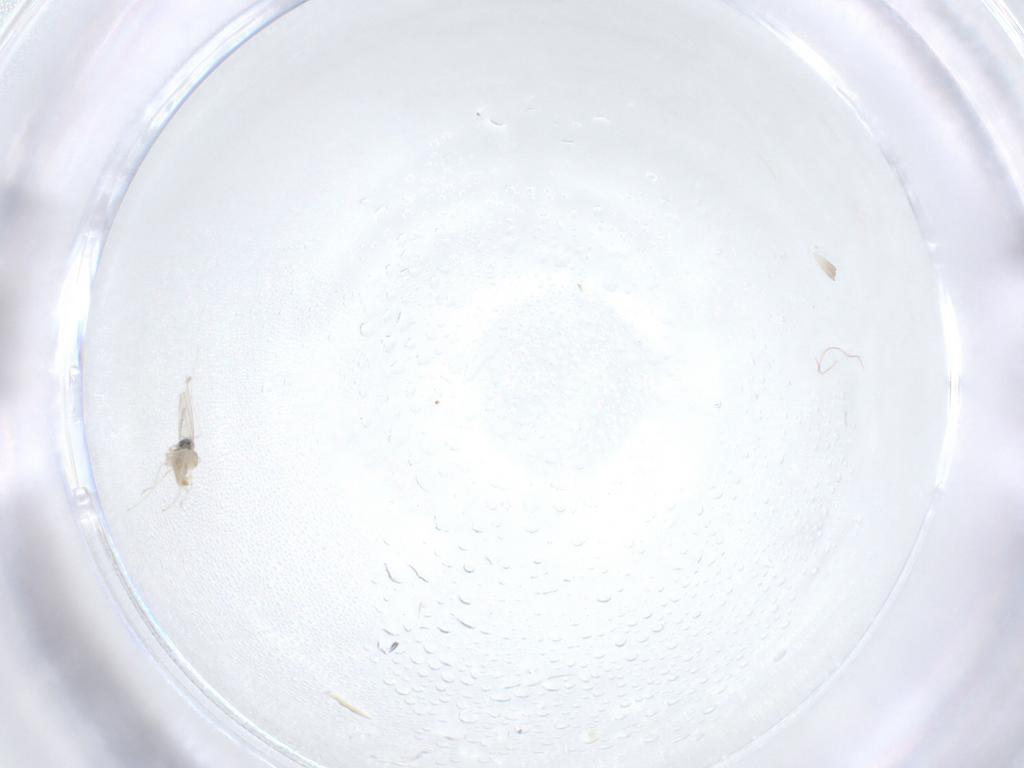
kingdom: Animalia
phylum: Arthropoda
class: Insecta
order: Diptera
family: Cecidomyiidae
